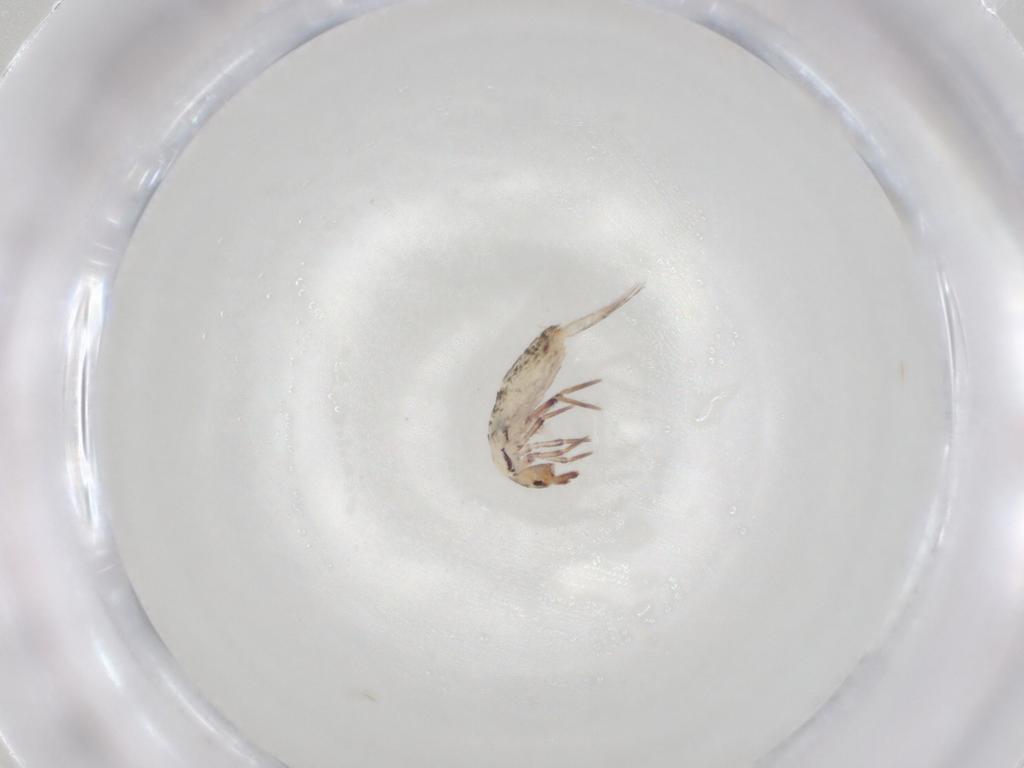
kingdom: Animalia
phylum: Arthropoda
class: Collembola
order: Entomobryomorpha
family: Entomobryidae
